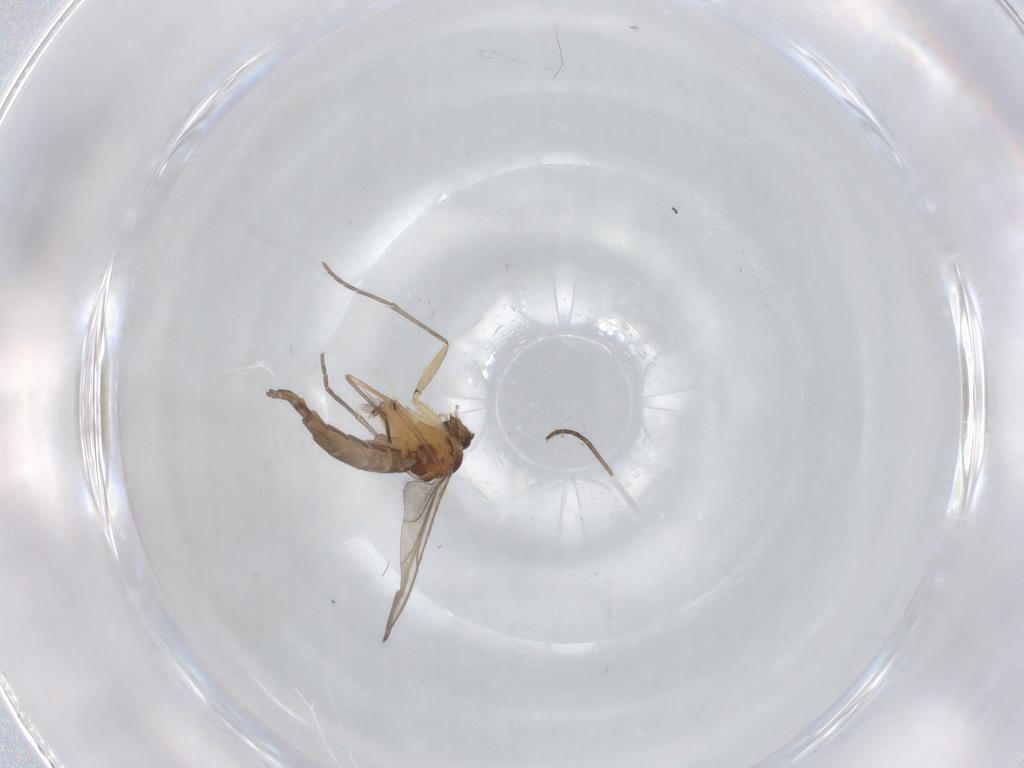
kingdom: Animalia
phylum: Arthropoda
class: Insecta
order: Diptera
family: Sciaridae
